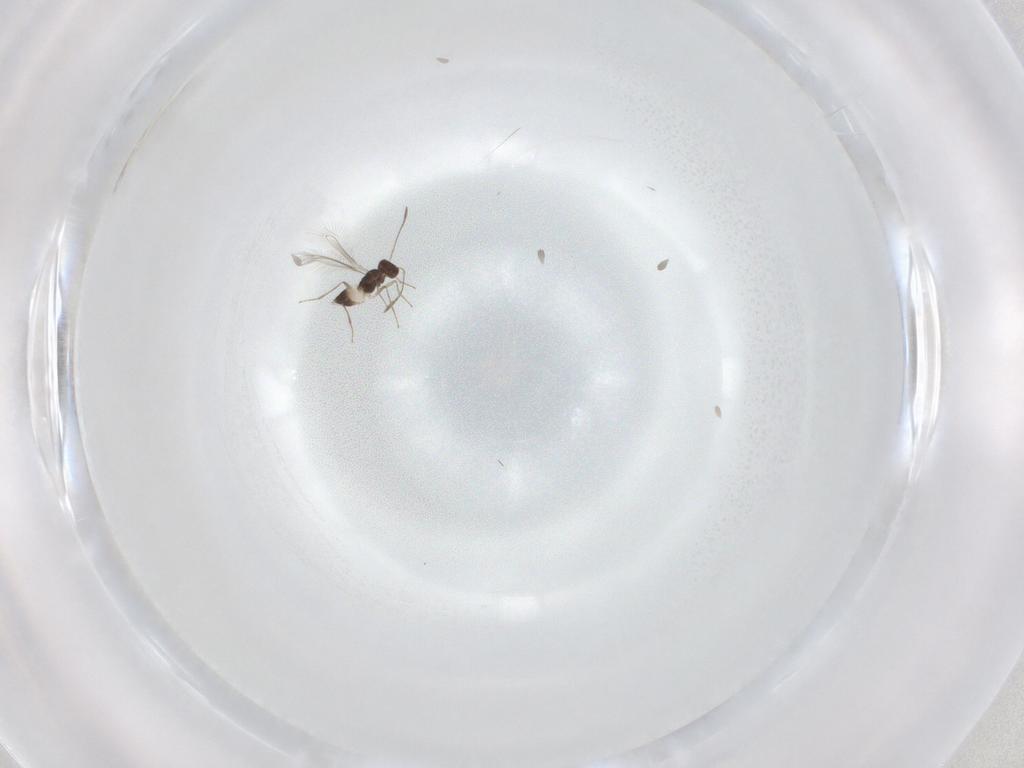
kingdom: Animalia
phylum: Arthropoda
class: Insecta
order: Hymenoptera
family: Mymaridae
